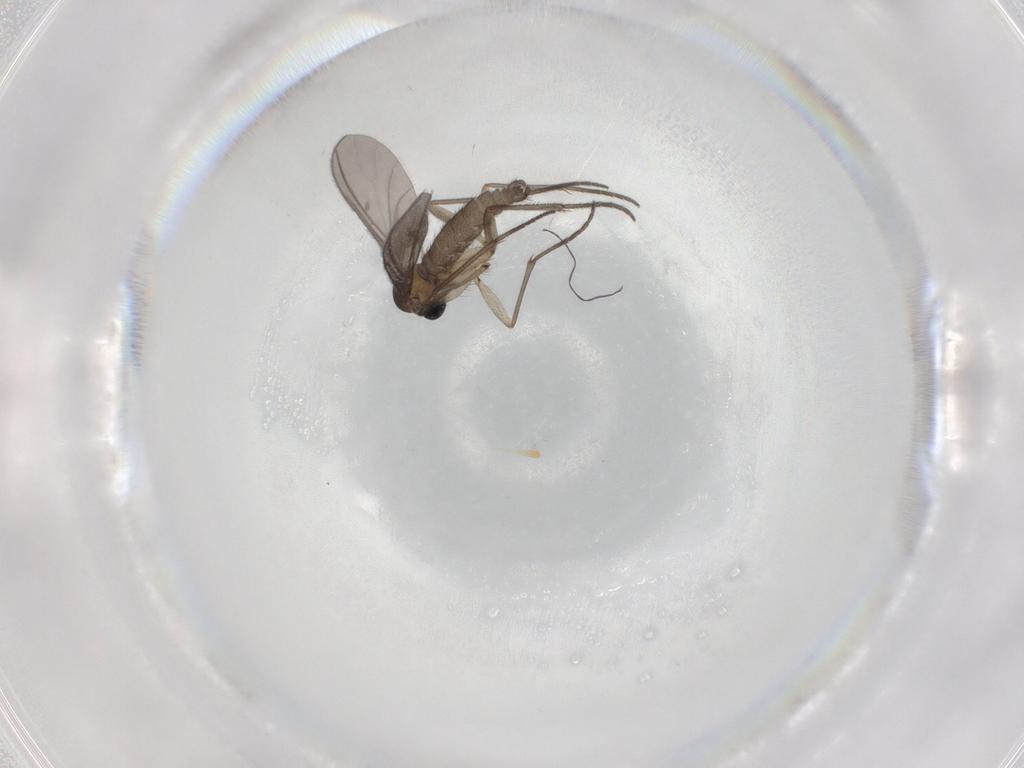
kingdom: Animalia
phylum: Arthropoda
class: Insecta
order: Diptera
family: Sciaridae
